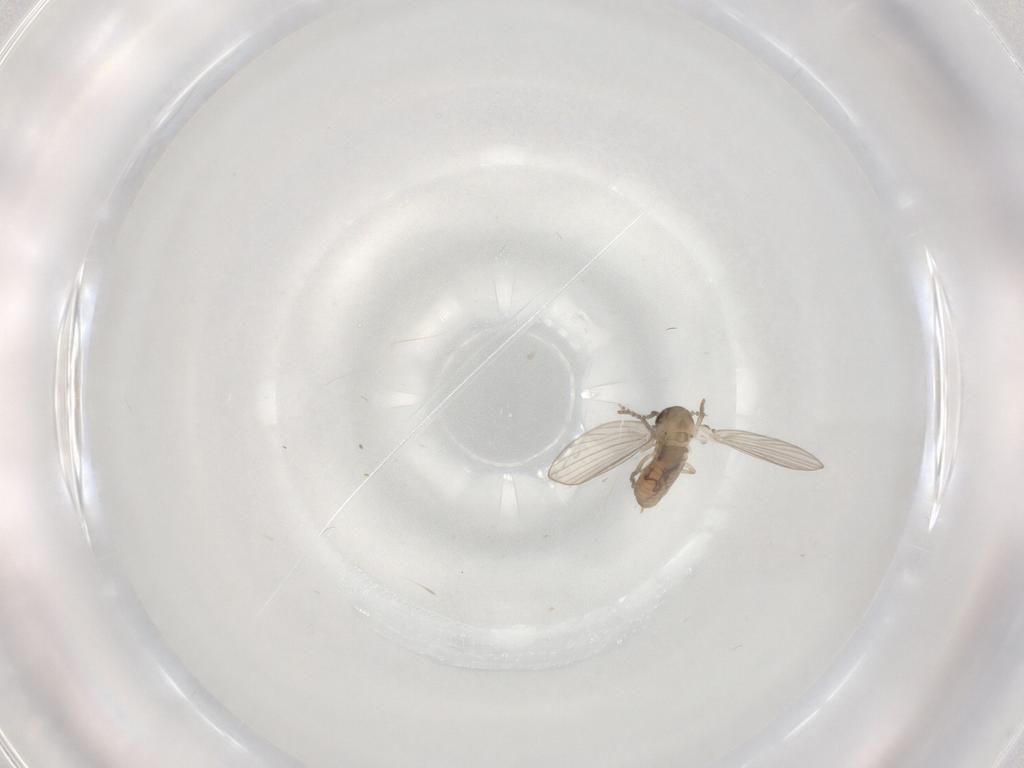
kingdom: Animalia
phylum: Arthropoda
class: Insecta
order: Diptera
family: Psychodidae
